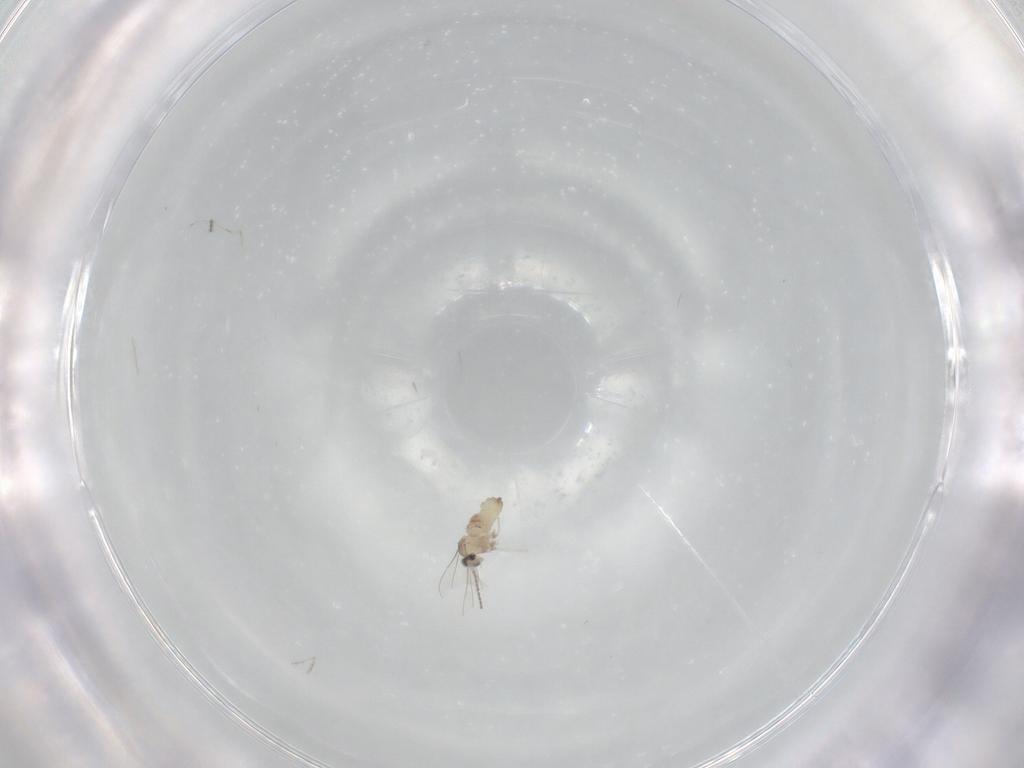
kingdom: Animalia
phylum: Arthropoda
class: Insecta
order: Diptera
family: Cecidomyiidae
